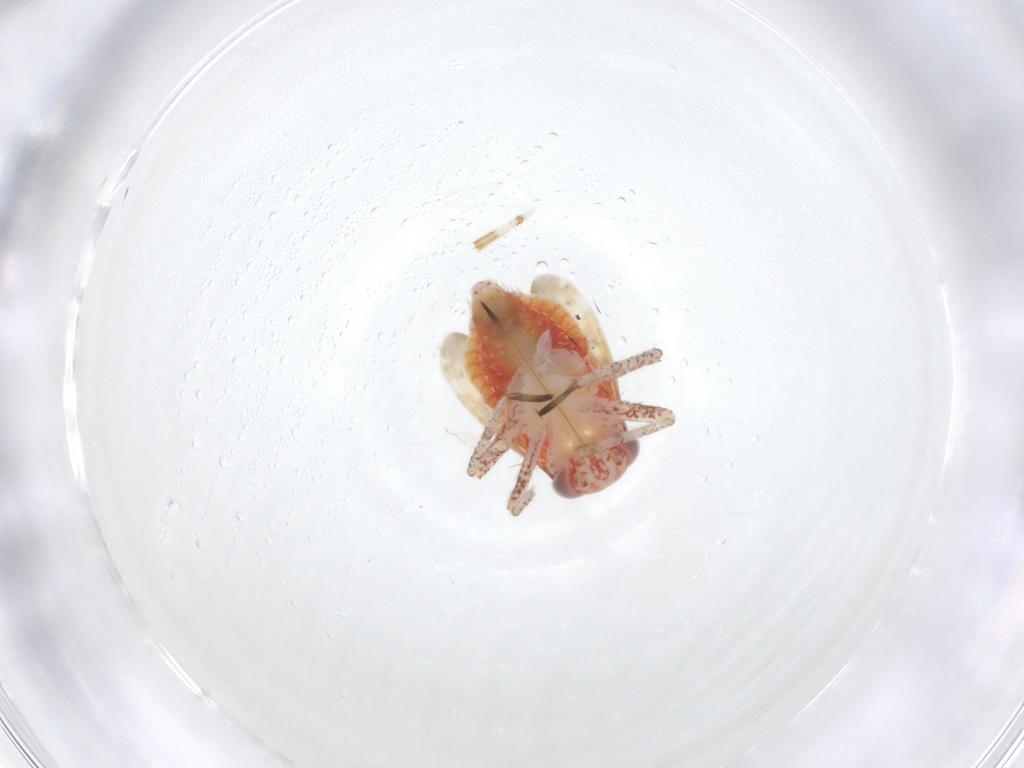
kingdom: Animalia
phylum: Arthropoda
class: Insecta
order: Hemiptera
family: Miridae
